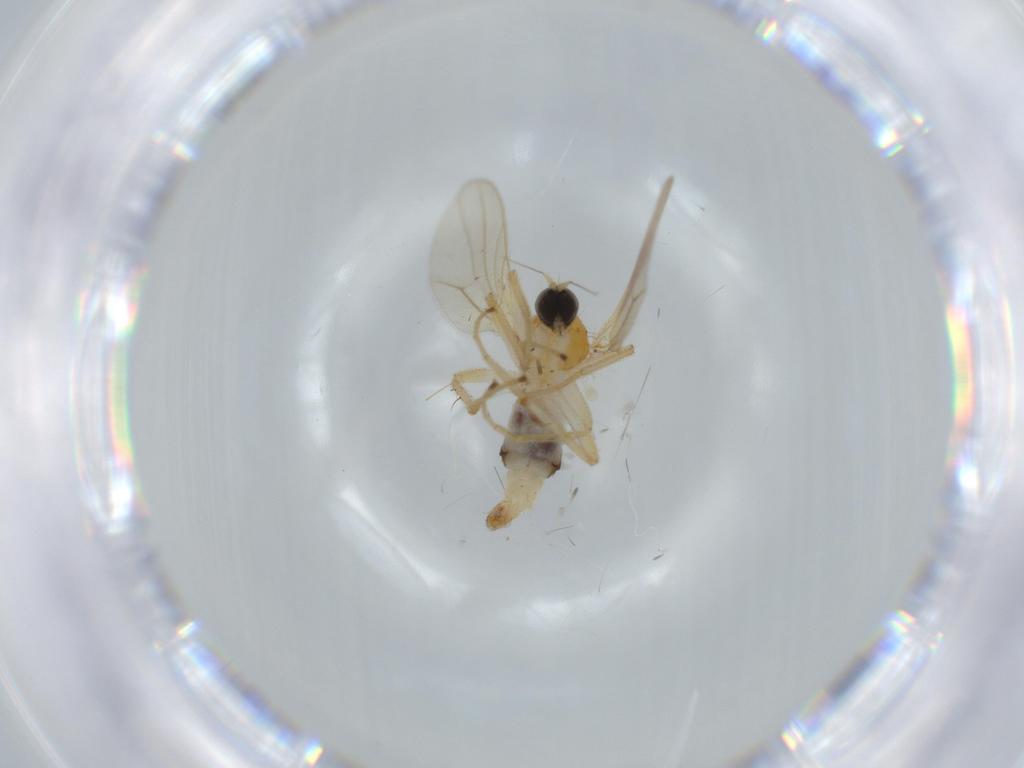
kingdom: Animalia
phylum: Arthropoda
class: Insecta
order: Diptera
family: Hybotidae
